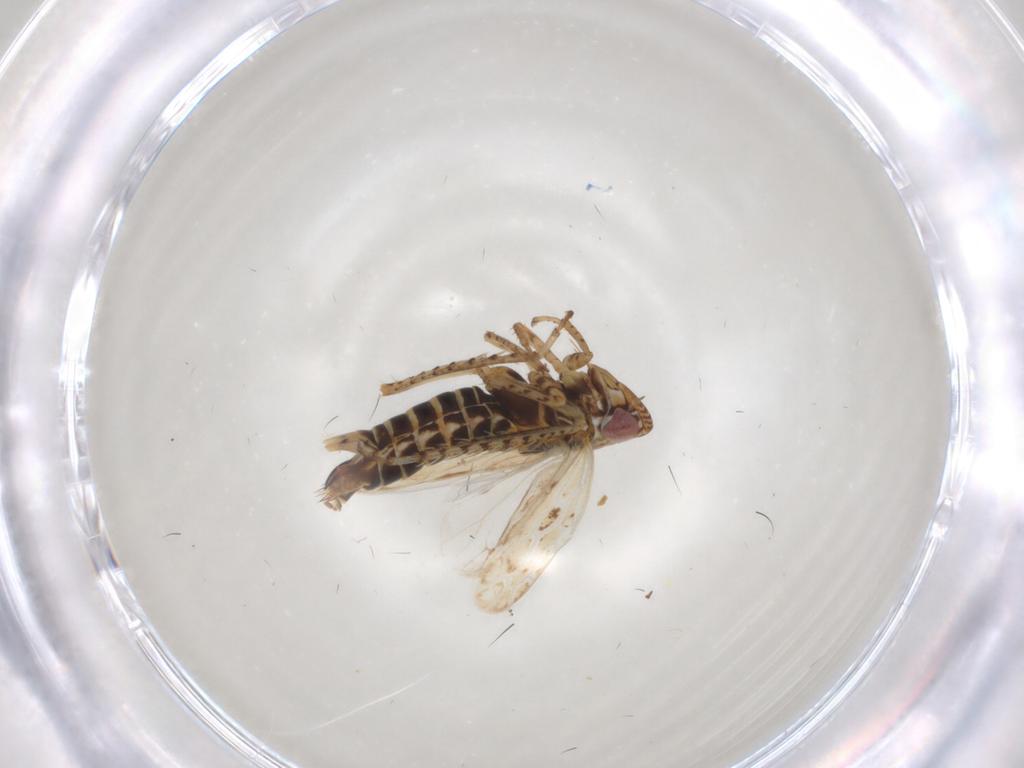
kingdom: Animalia
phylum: Arthropoda
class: Insecta
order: Hemiptera
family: Cicadellidae
